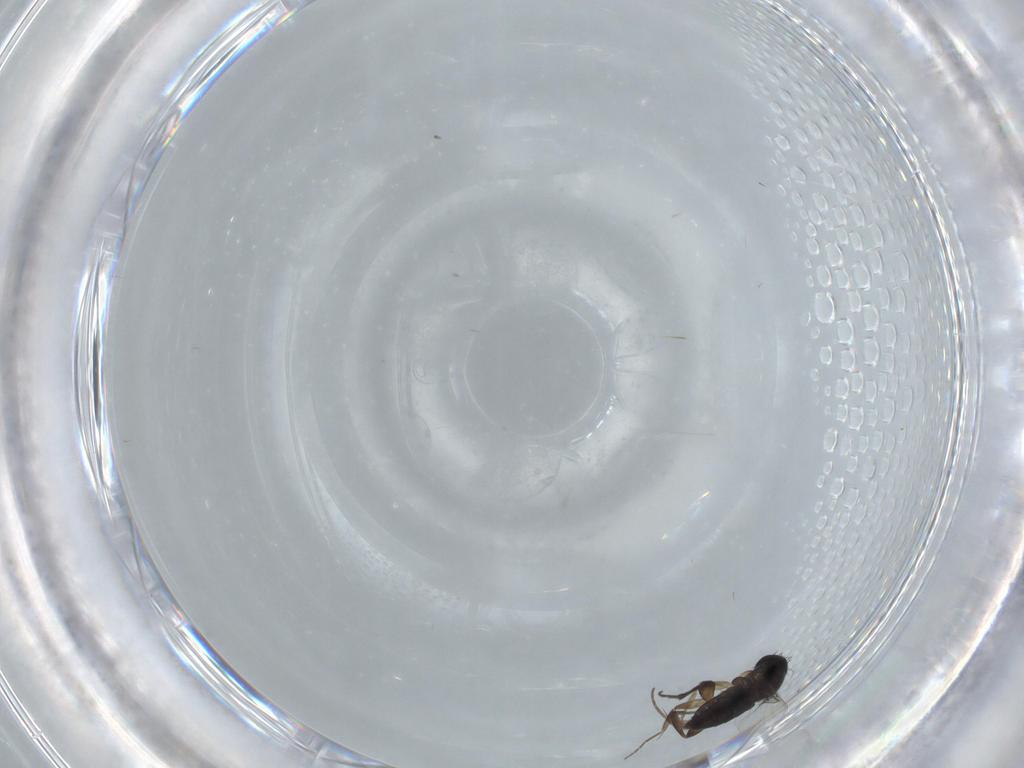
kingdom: Animalia
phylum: Arthropoda
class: Insecta
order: Diptera
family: Phoridae
